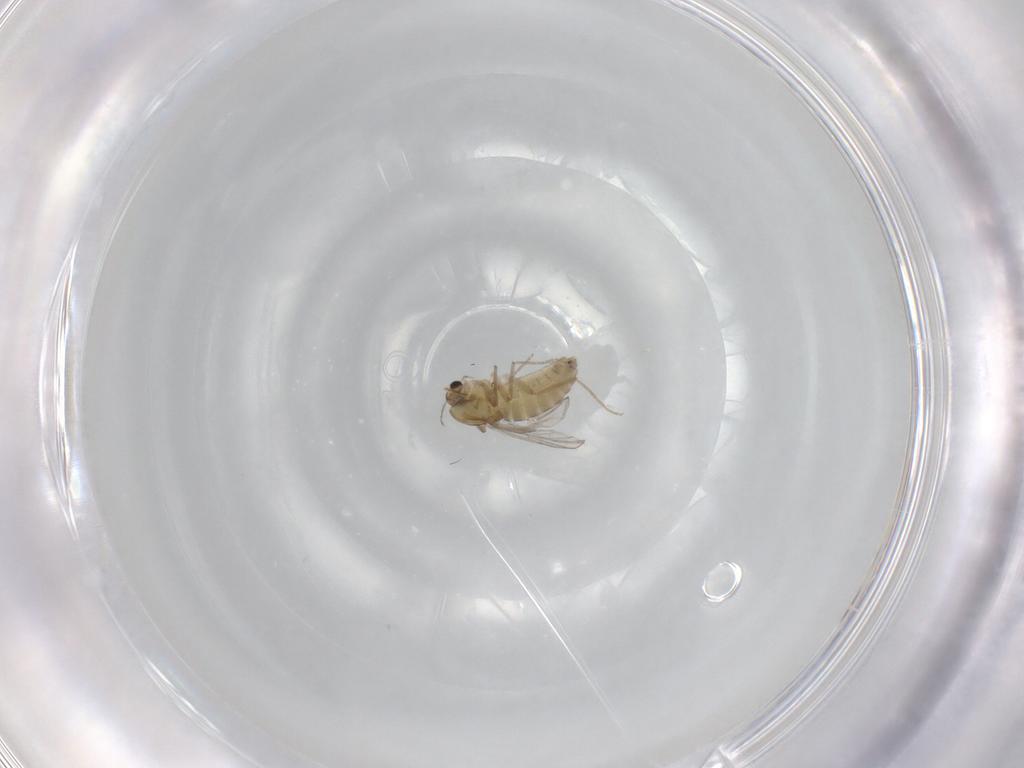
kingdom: Animalia
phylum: Arthropoda
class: Insecta
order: Diptera
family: Chironomidae
